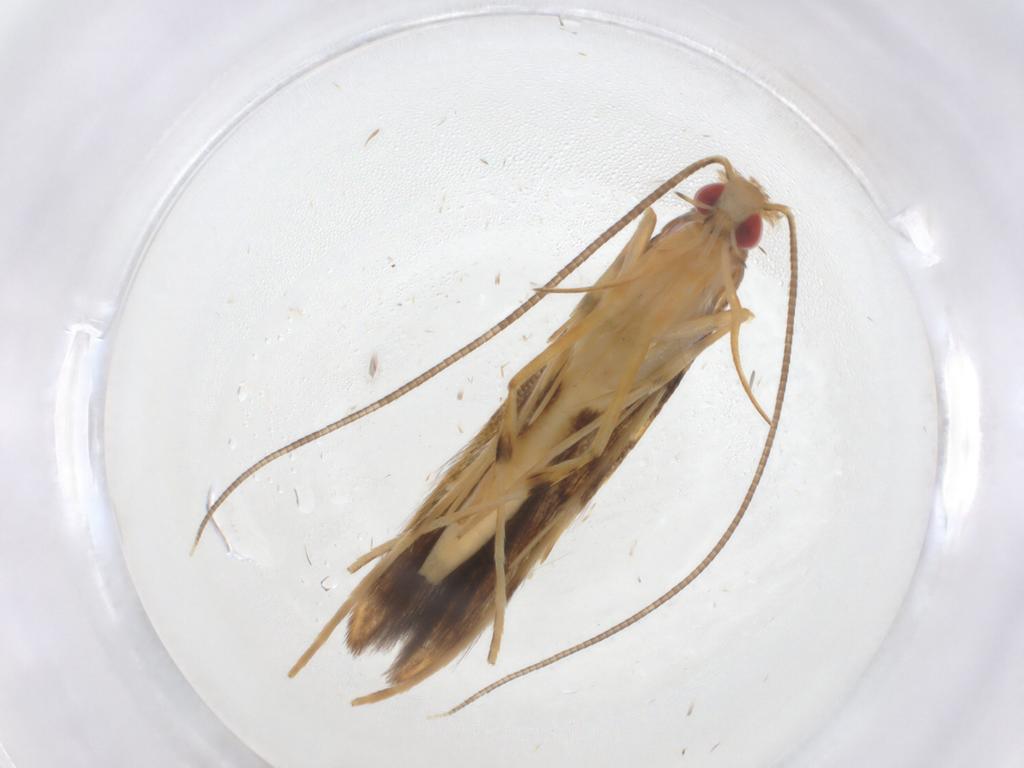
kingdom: Animalia
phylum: Arthropoda
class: Insecta
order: Lepidoptera
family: Gracillariidae
